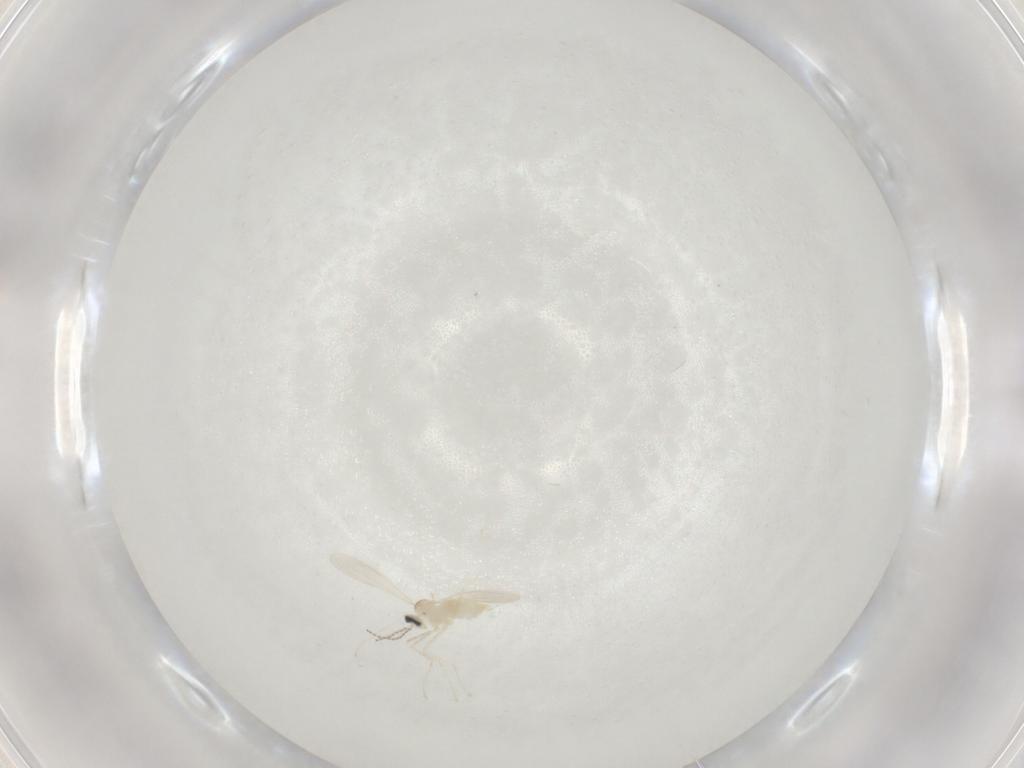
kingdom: Animalia
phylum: Arthropoda
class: Insecta
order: Diptera
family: Cecidomyiidae
